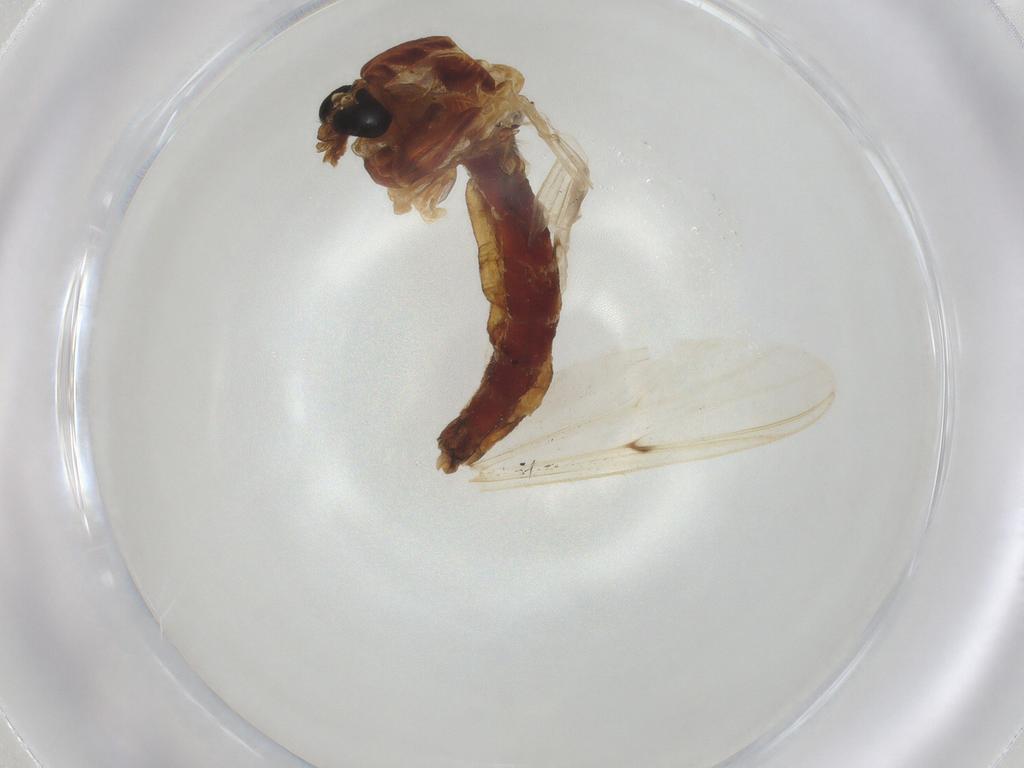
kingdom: Animalia
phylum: Arthropoda
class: Insecta
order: Diptera
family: Chironomidae
